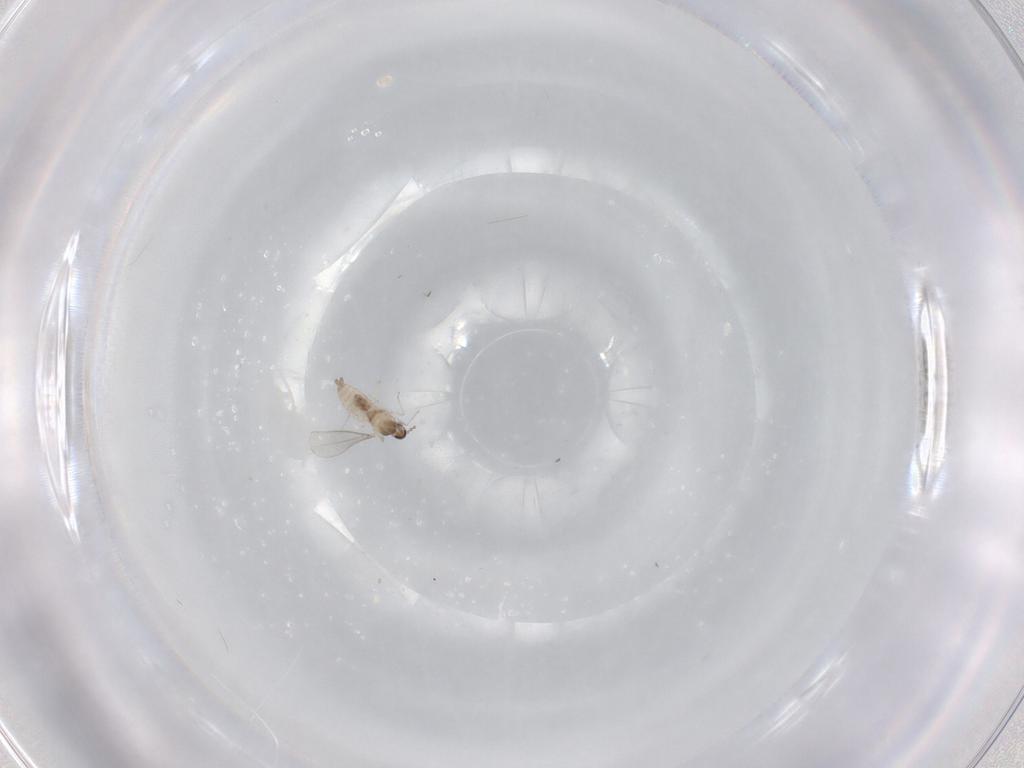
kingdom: Animalia
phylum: Arthropoda
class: Insecta
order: Diptera
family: Cecidomyiidae
